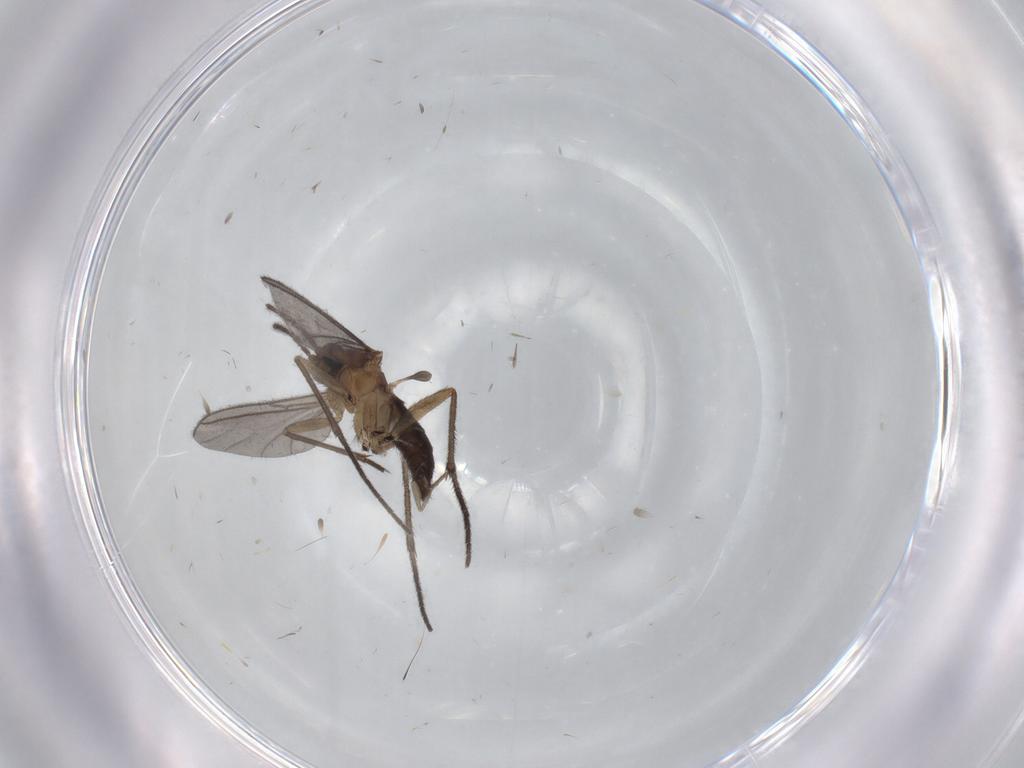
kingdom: Animalia
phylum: Arthropoda
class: Insecta
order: Diptera
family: Sciaridae
